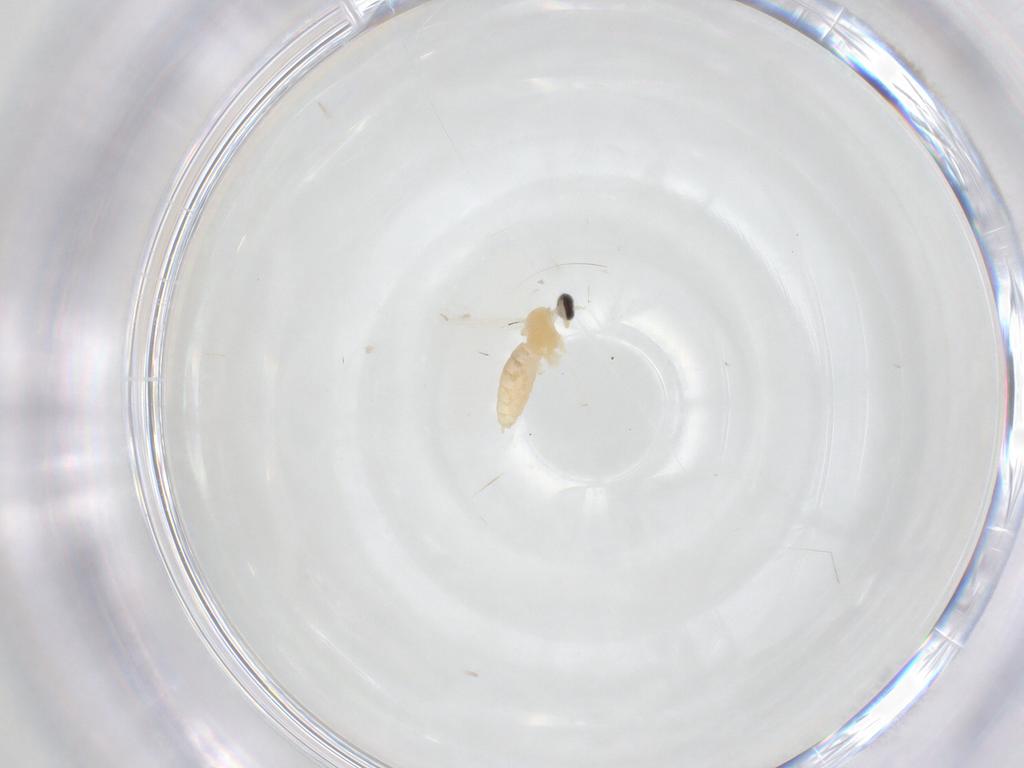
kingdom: Animalia
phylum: Arthropoda
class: Insecta
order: Diptera
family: Cecidomyiidae
